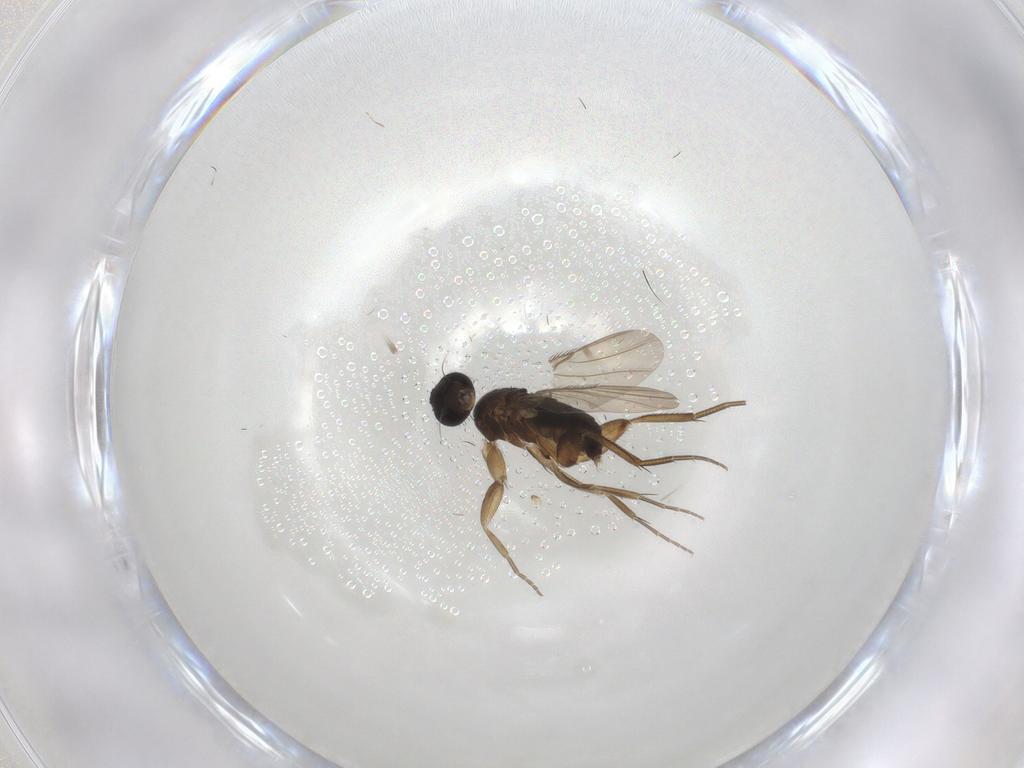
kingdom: Animalia
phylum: Arthropoda
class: Insecta
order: Diptera
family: Phoridae
